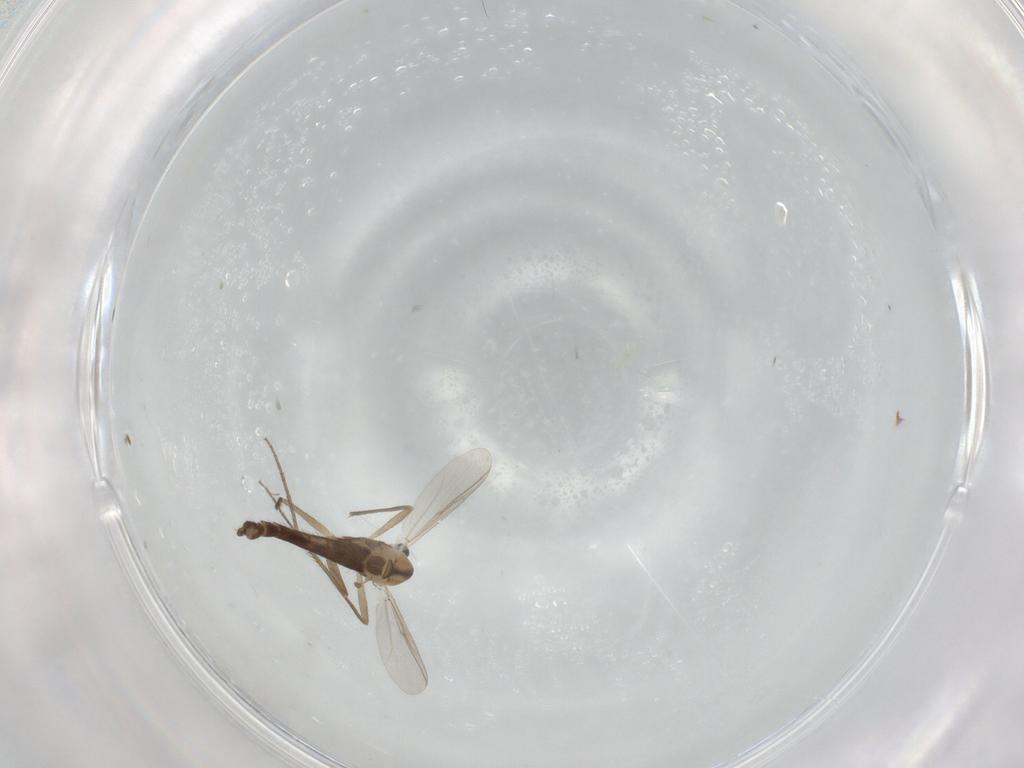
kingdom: Animalia
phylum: Arthropoda
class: Insecta
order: Diptera
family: Chironomidae
